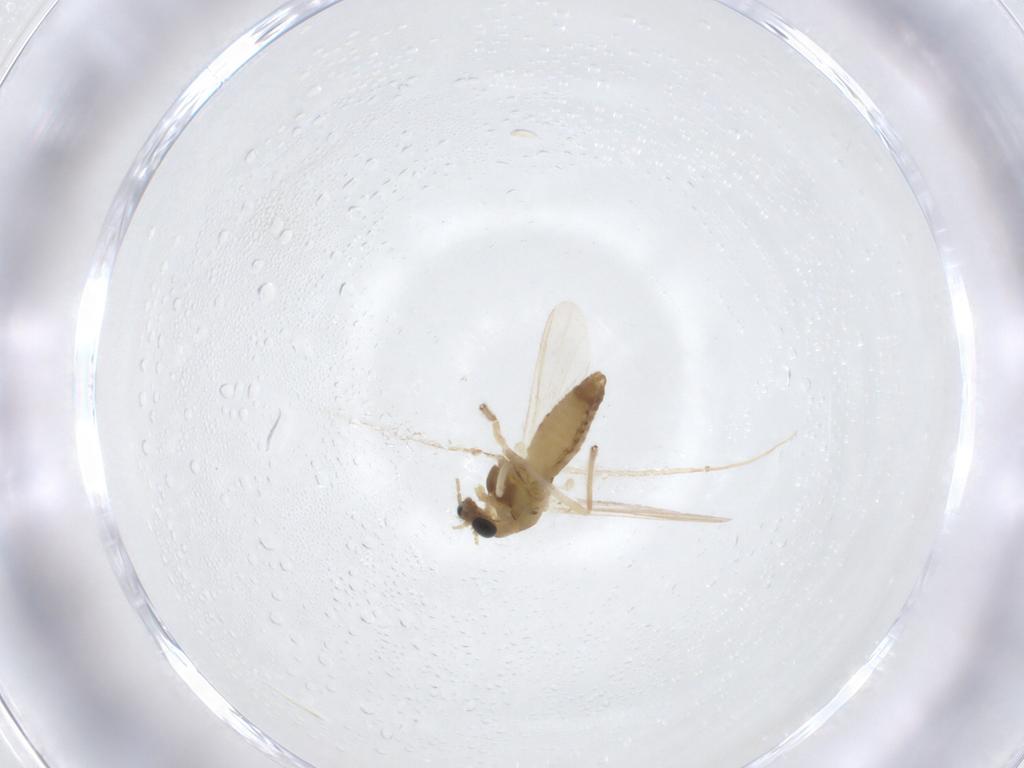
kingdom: Animalia
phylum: Arthropoda
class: Insecta
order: Diptera
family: Chironomidae
